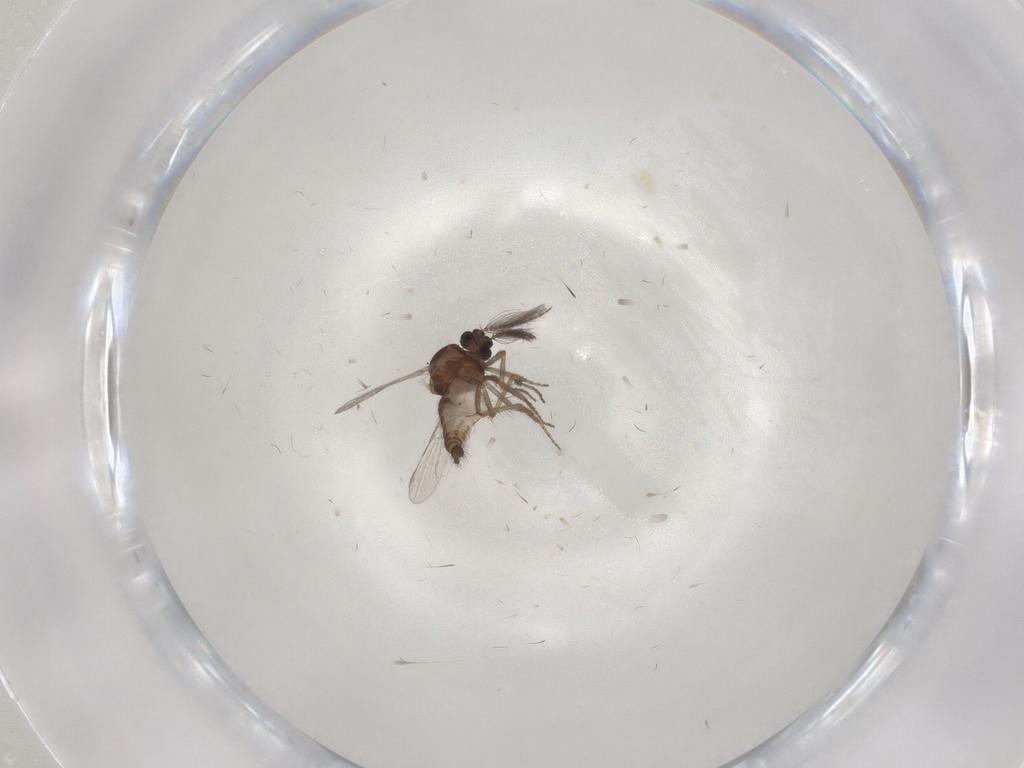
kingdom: Animalia
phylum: Arthropoda
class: Insecta
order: Diptera
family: Ceratopogonidae
